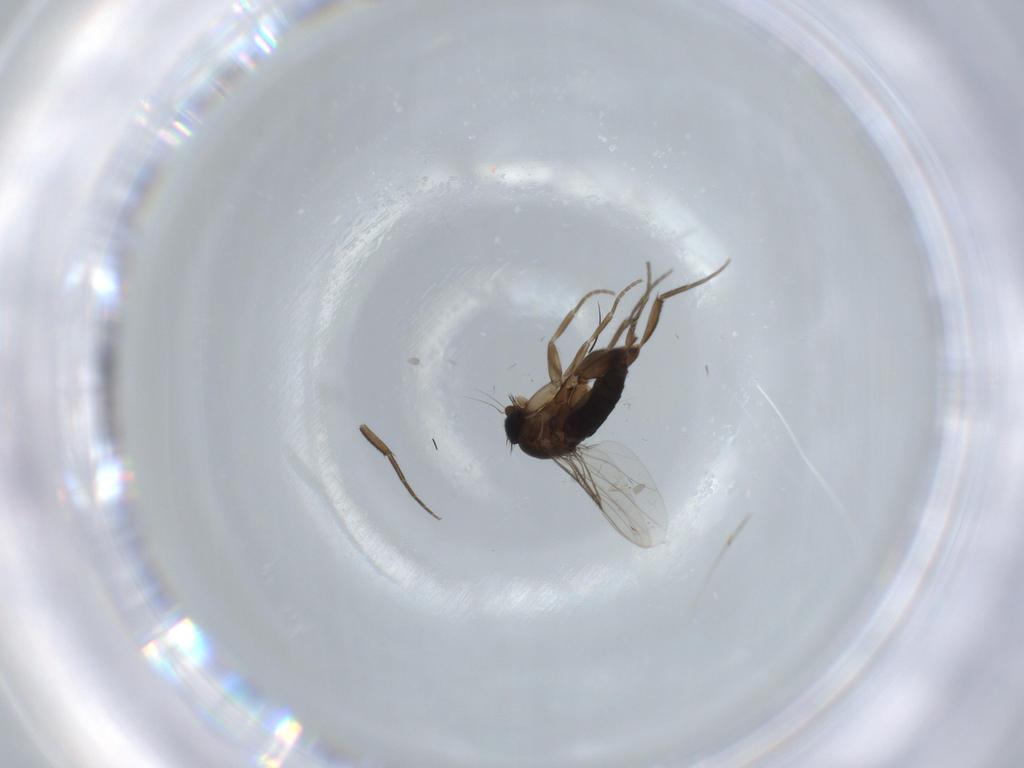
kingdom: Animalia
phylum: Arthropoda
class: Insecta
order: Diptera
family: Phoridae
